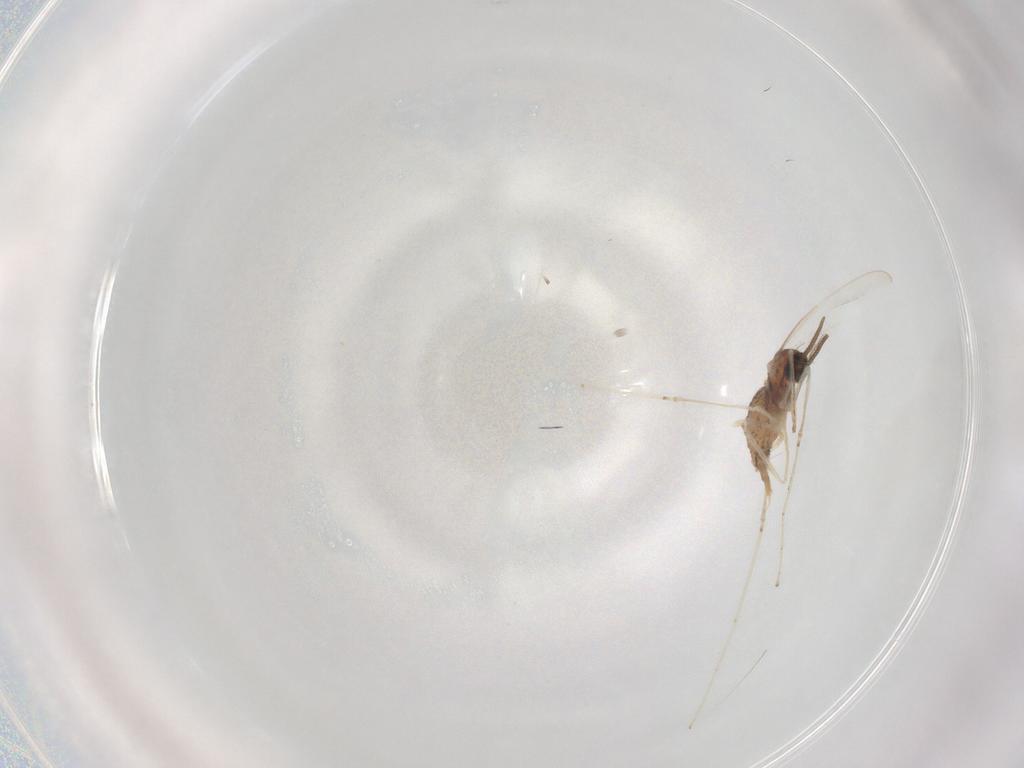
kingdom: Animalia
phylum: Arthropoda
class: Insecta
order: Diptera
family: Cecidomyiidae
